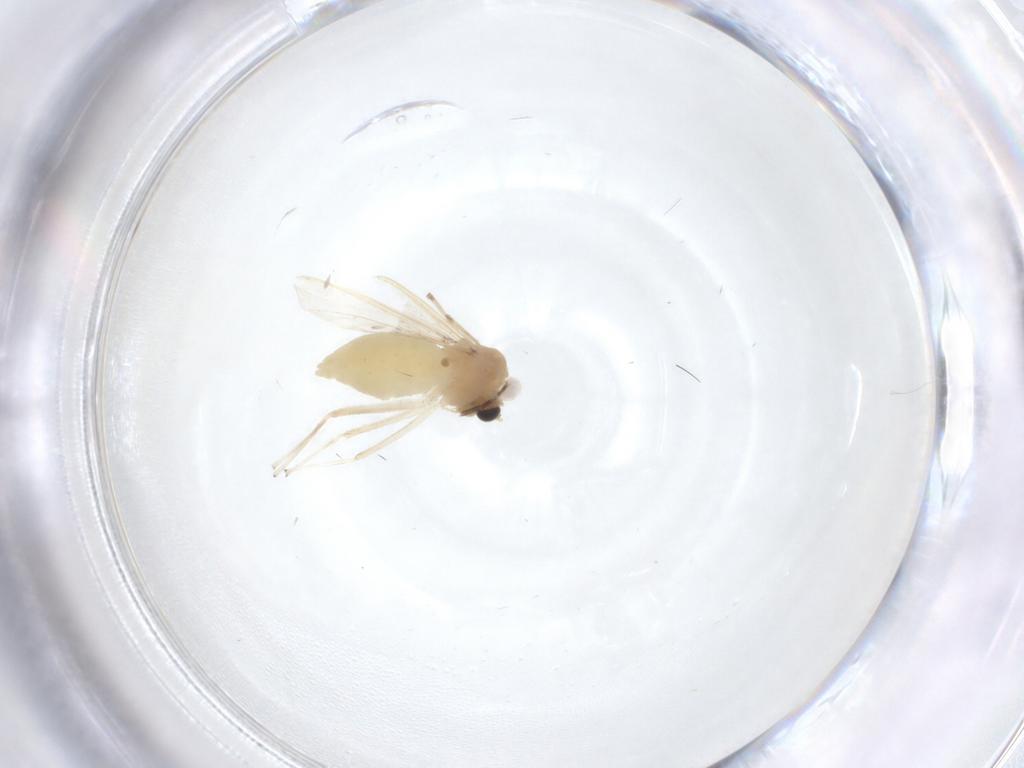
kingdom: Animalia
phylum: Arthropoda
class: Insecta
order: Diptera
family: Chironomidae
